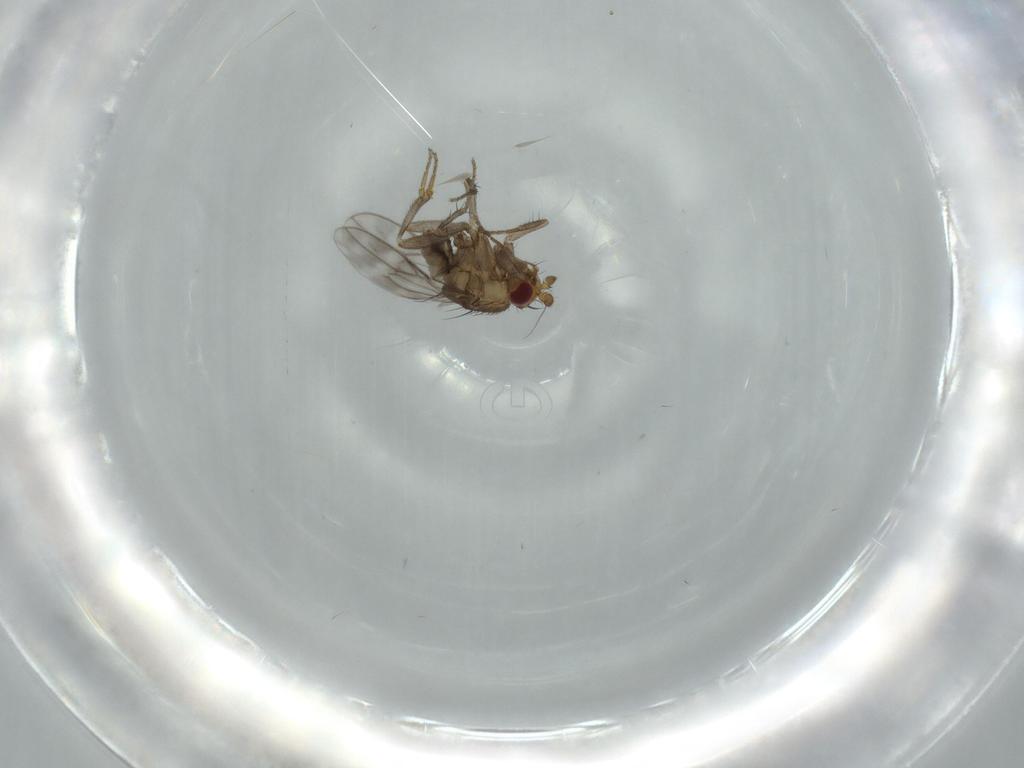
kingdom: Animalia
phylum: Arthropoda
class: Insecta
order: Diptera
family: Sphaeroceridae
